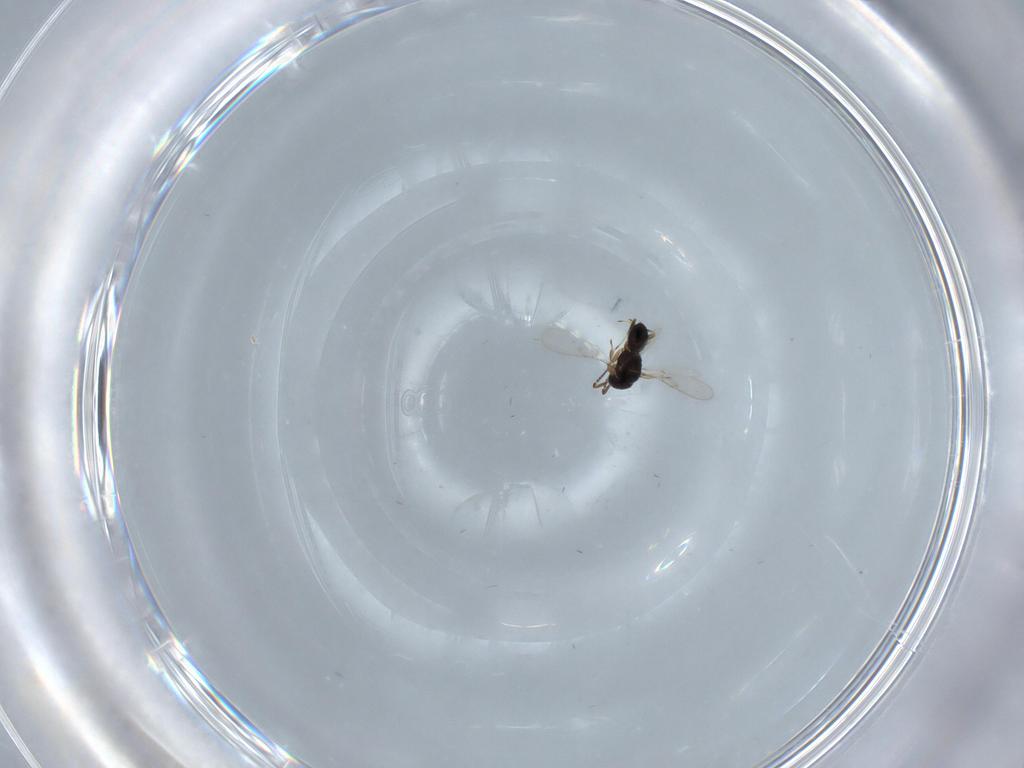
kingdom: Animalia
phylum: Arthropoda
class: Insecta
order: Hymenoptera
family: Scelionidae
